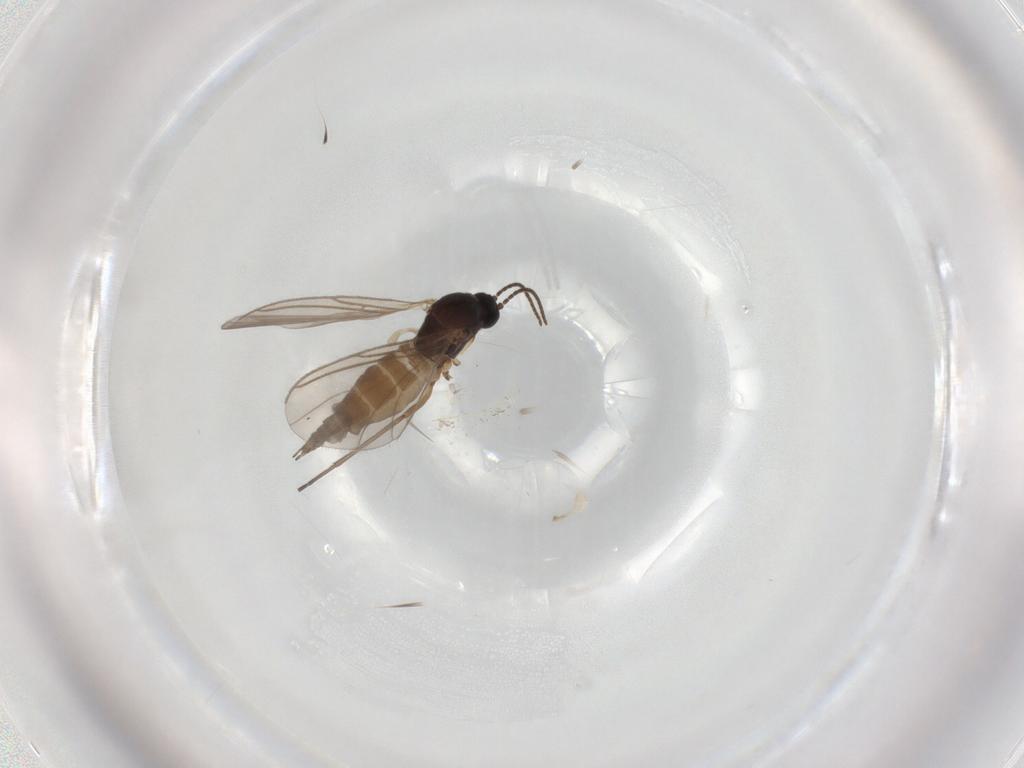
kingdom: Animalia
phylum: Arthropoda
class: Insecta
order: Diptera
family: Sciaridae
